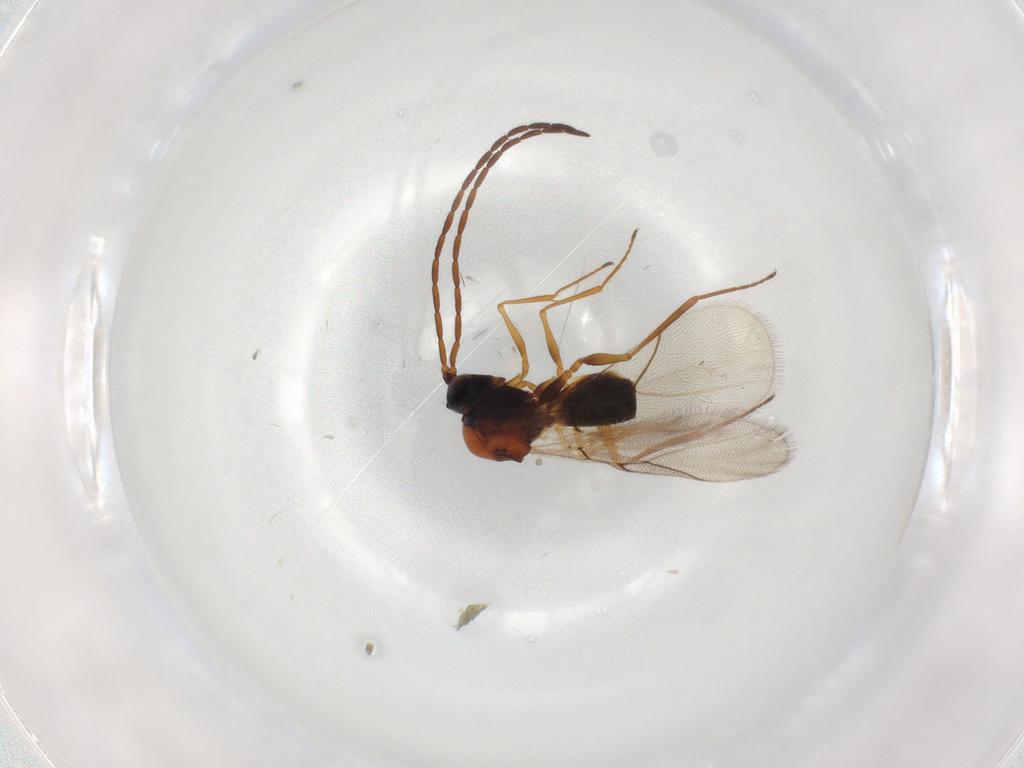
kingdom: Animalia
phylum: Arthropoda
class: Insecta
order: Hymenoptera
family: Figitidae
